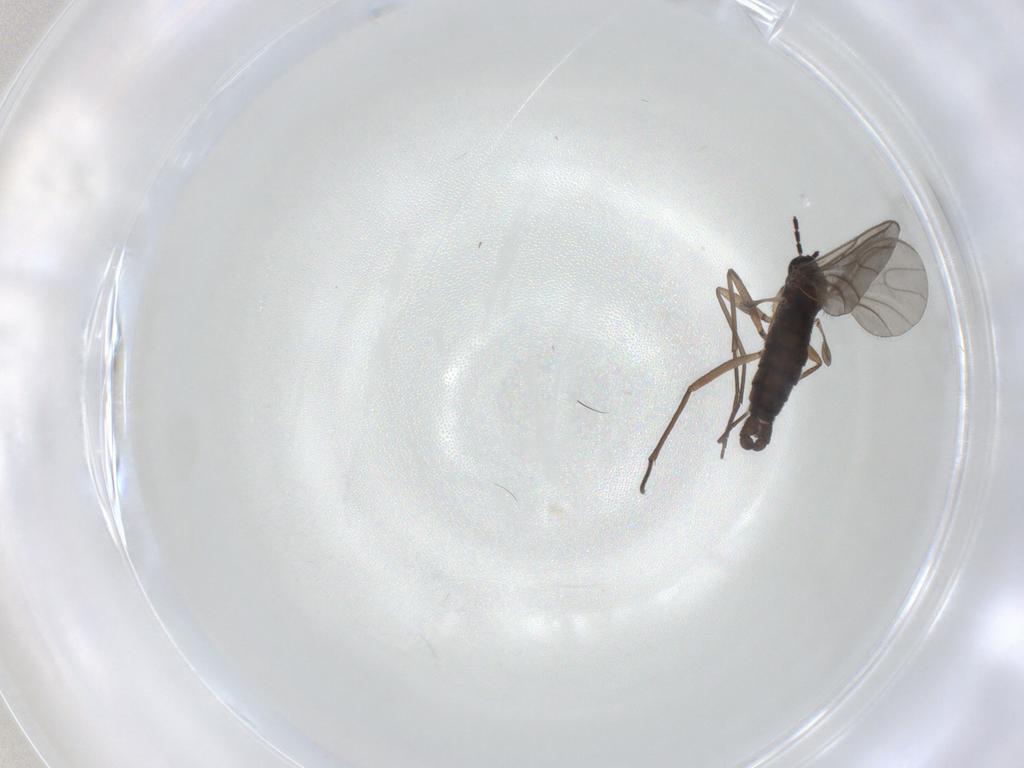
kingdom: Animalia
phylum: Arthropoda
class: Insecta
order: Diptera
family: Sciaridae
